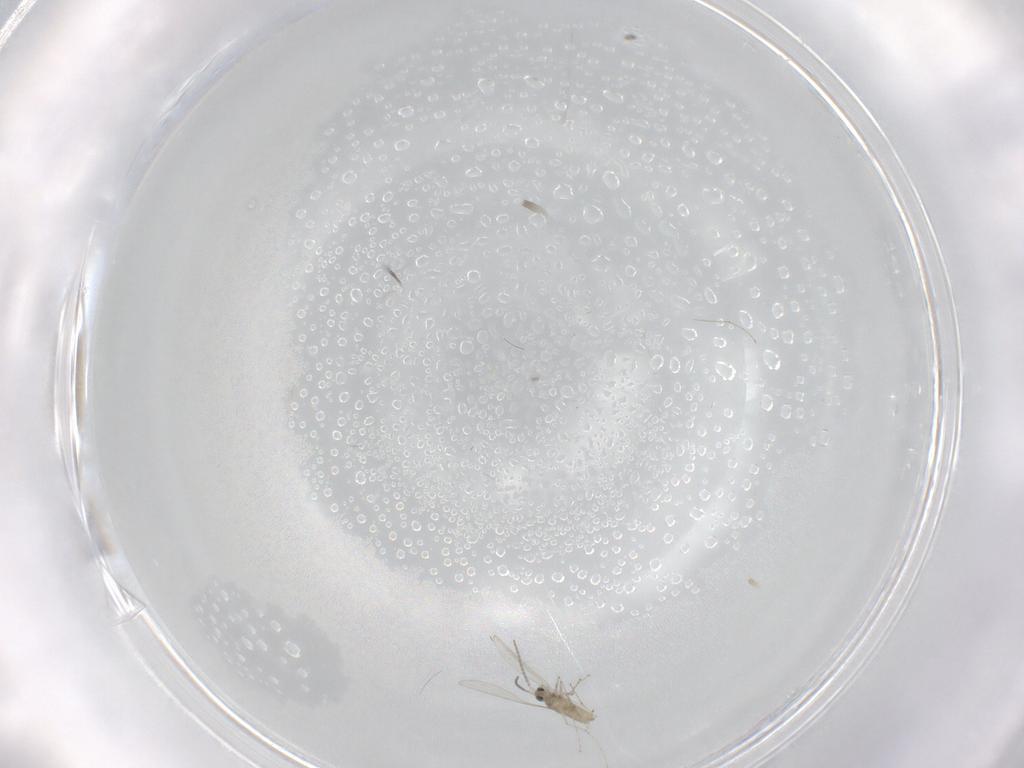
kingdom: Animalia
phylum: Arthropoda
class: Insecta
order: Diptera
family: Cecidomyiidae
